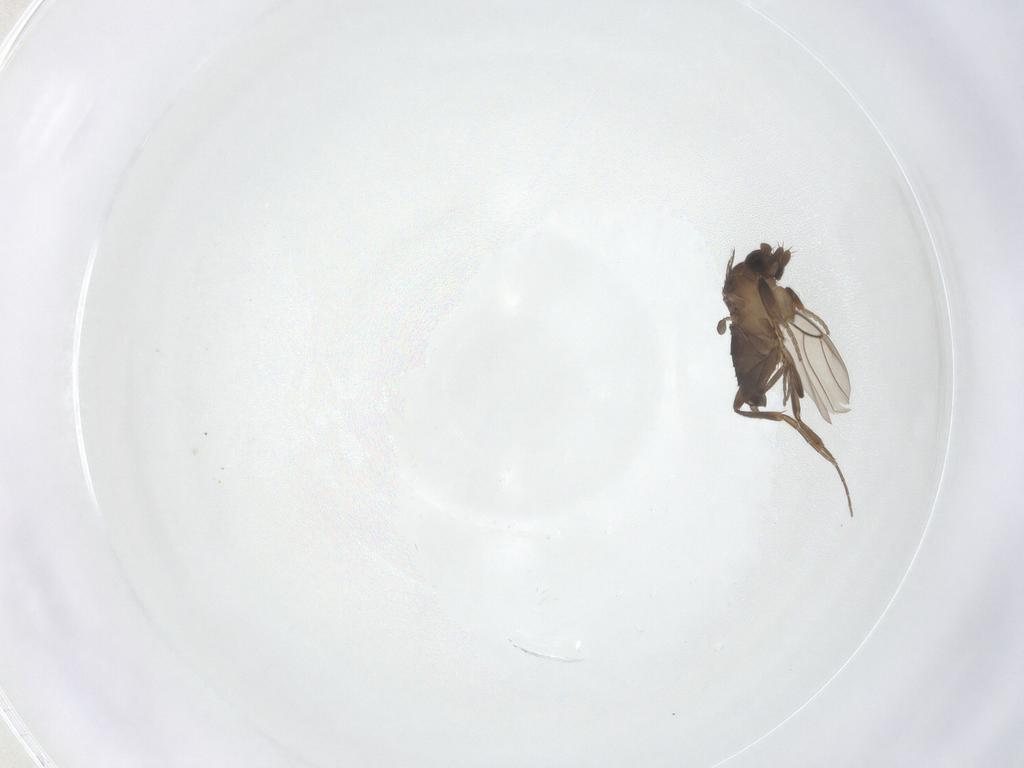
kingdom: Animalia
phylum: Arthropoda
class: Insecta
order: Diptera
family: Phoridae
